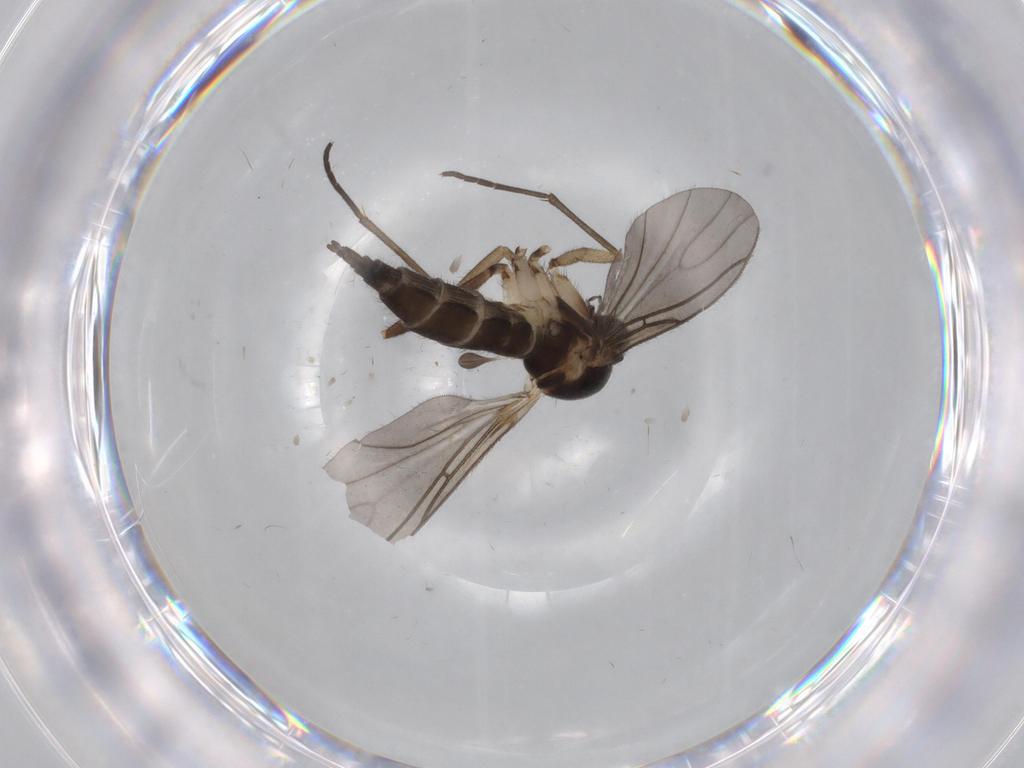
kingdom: Animalia
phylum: Arthropoda
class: Insecta
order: Diptera
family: Sciaridae
